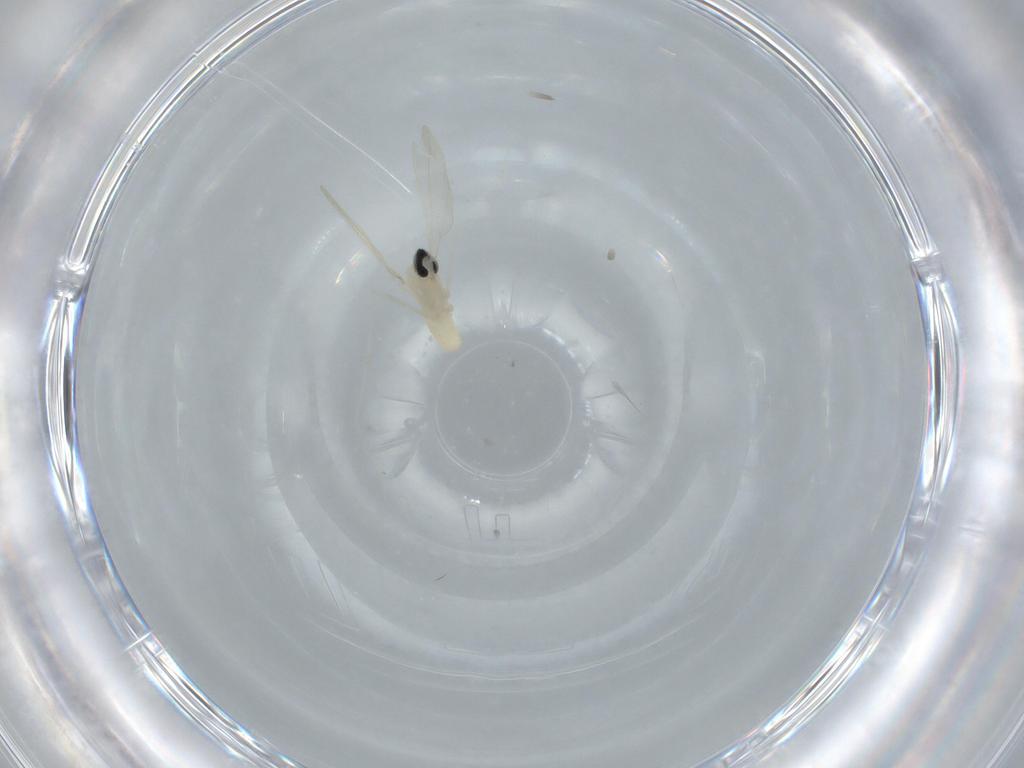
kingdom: Animalia
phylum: Arthropoda
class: Insecta
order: Diptera
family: Cecidomyiidae
